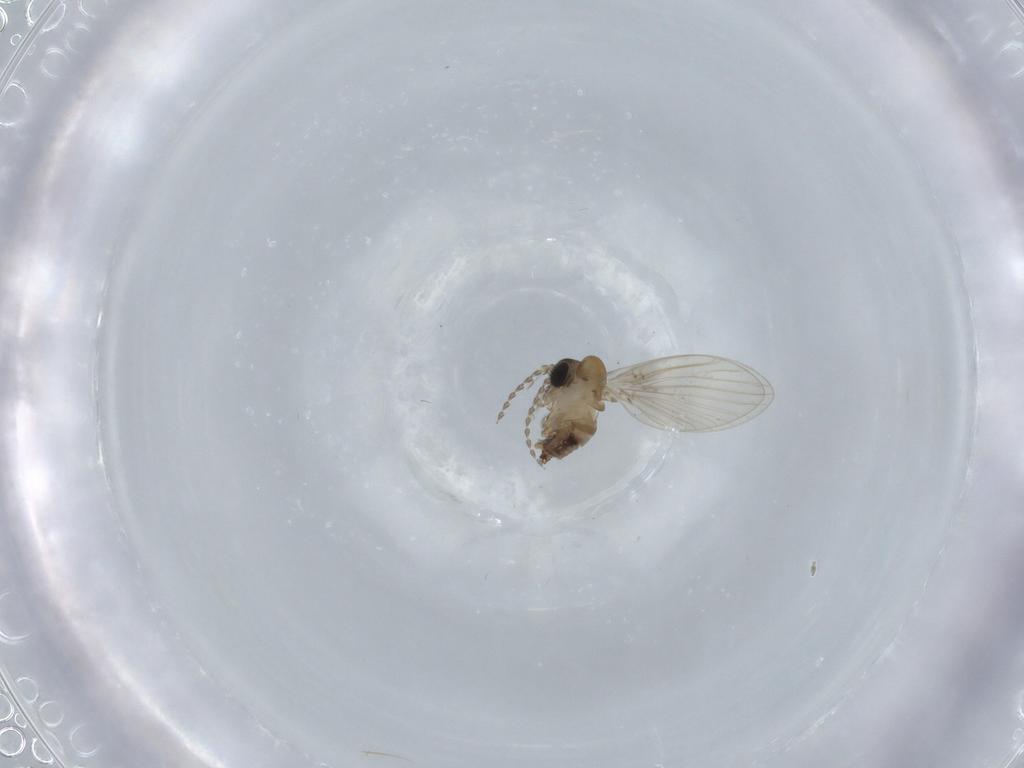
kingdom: Animalia
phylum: Arthropoda
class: Insecta
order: Diptera
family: Psychodidae
